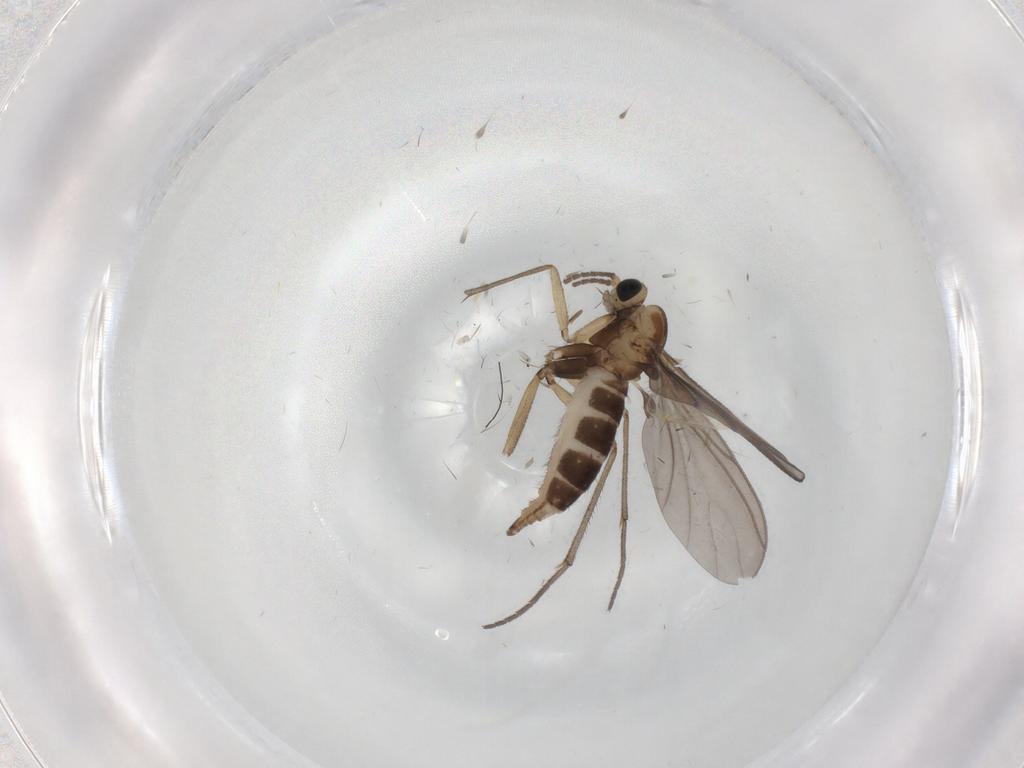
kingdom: Animalia
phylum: Arthropoda
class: Insecta
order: Diptera
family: Sciaridae
